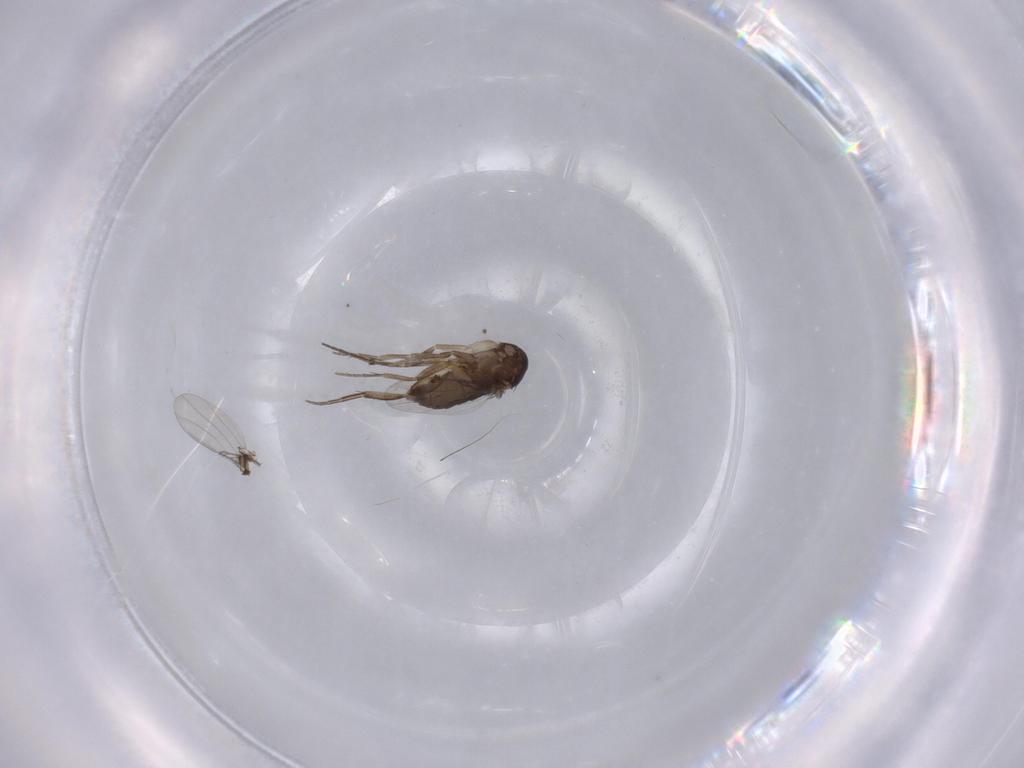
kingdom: Animalia
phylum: Arthropoda
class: Insecta
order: Diptera
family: Phoridae
